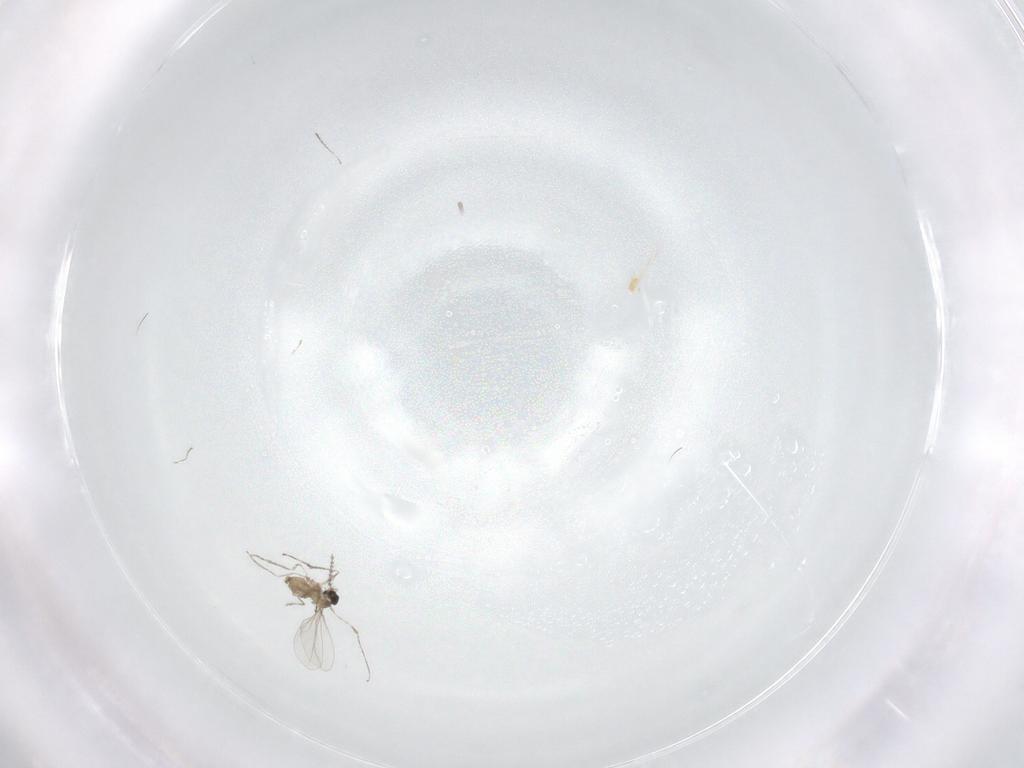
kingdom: Animalia
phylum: Arthropoda
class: Insecta
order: Diptera
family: Cecidomyiidae
